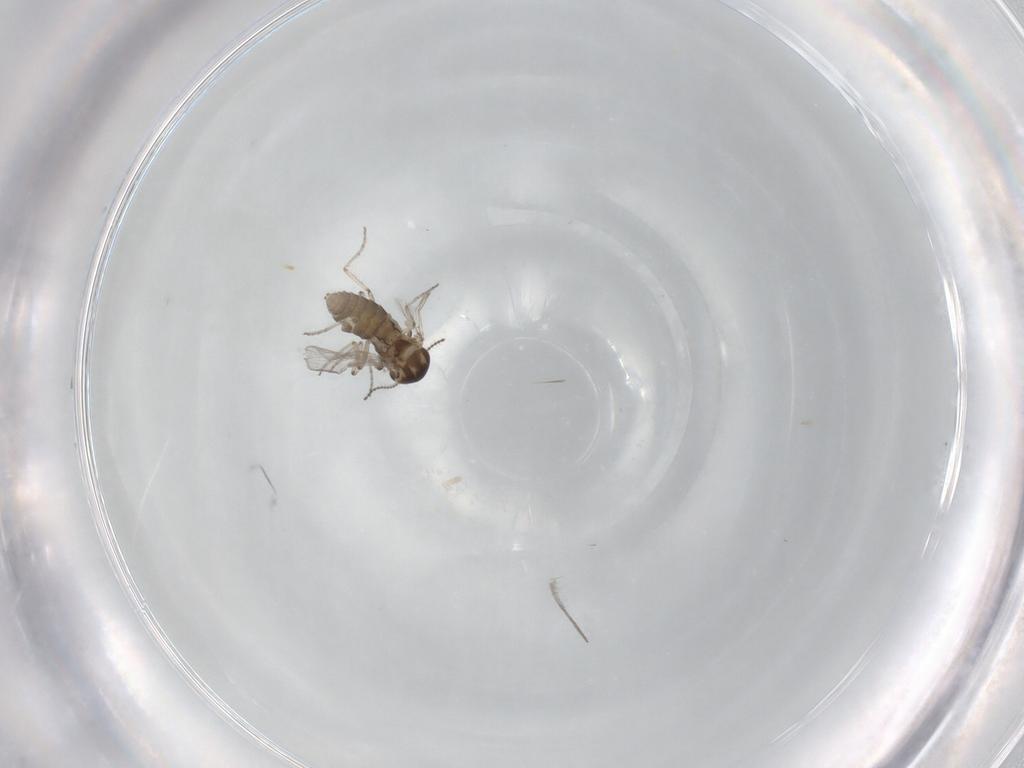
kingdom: Animalia
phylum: Arthropoda
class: Insecta
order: Diptera
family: Ceratopogonidae
